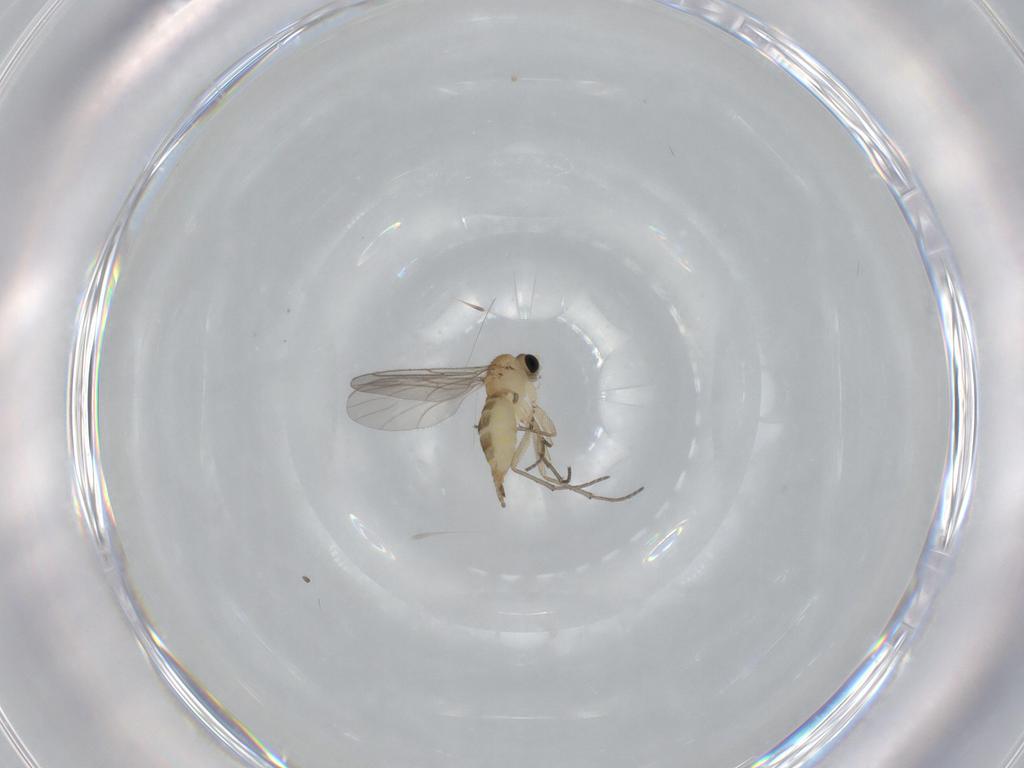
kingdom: Animalia
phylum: Arthropoda
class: Insecta
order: Diptera
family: Sciaridae
